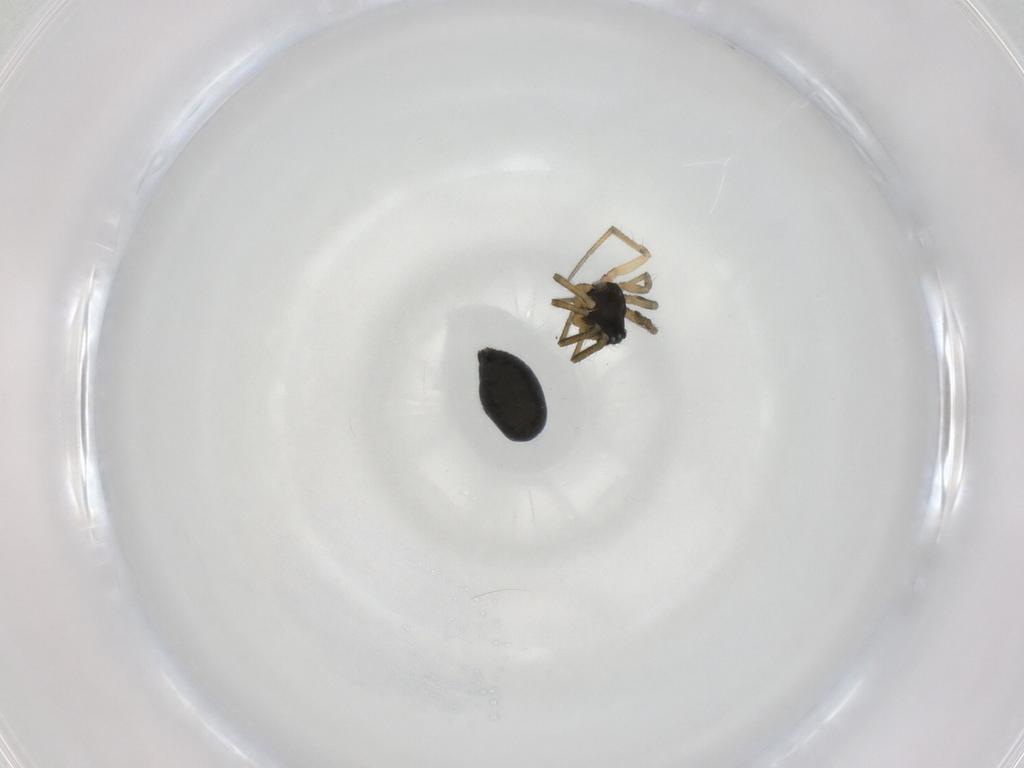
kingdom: Animalia
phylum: Arthropoda
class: Arachnida
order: Araneae
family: Linyphiidae
